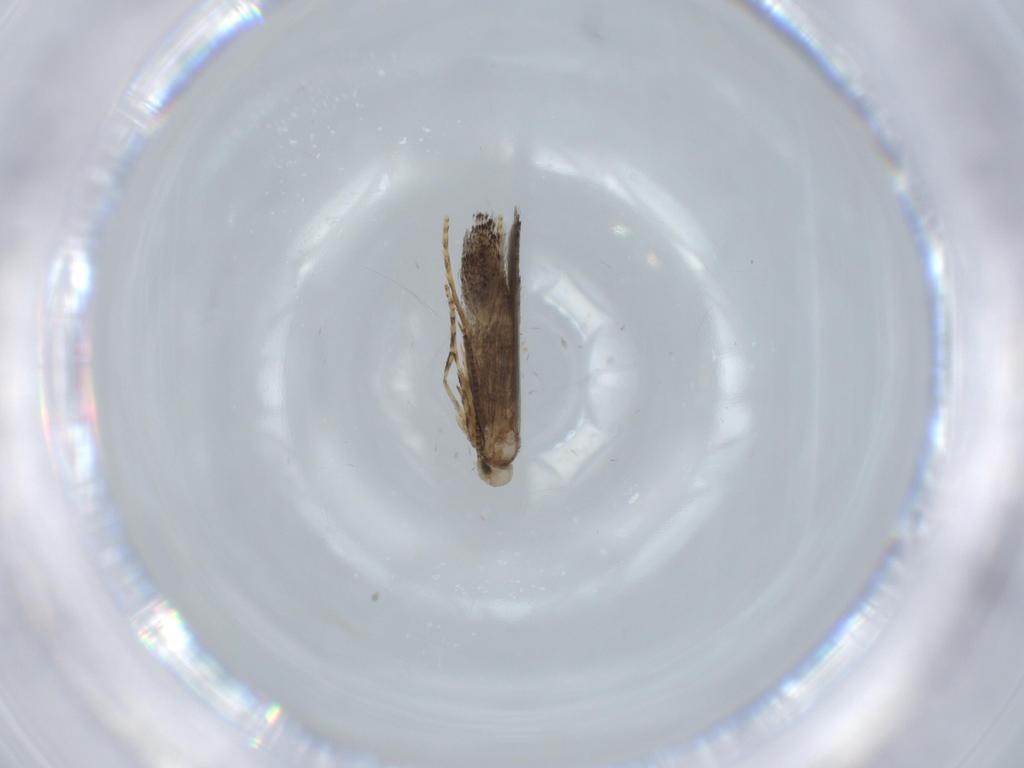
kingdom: Animalia
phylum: Arthropoda
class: Insecta
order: Lepidoptera
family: Gracillariidae
